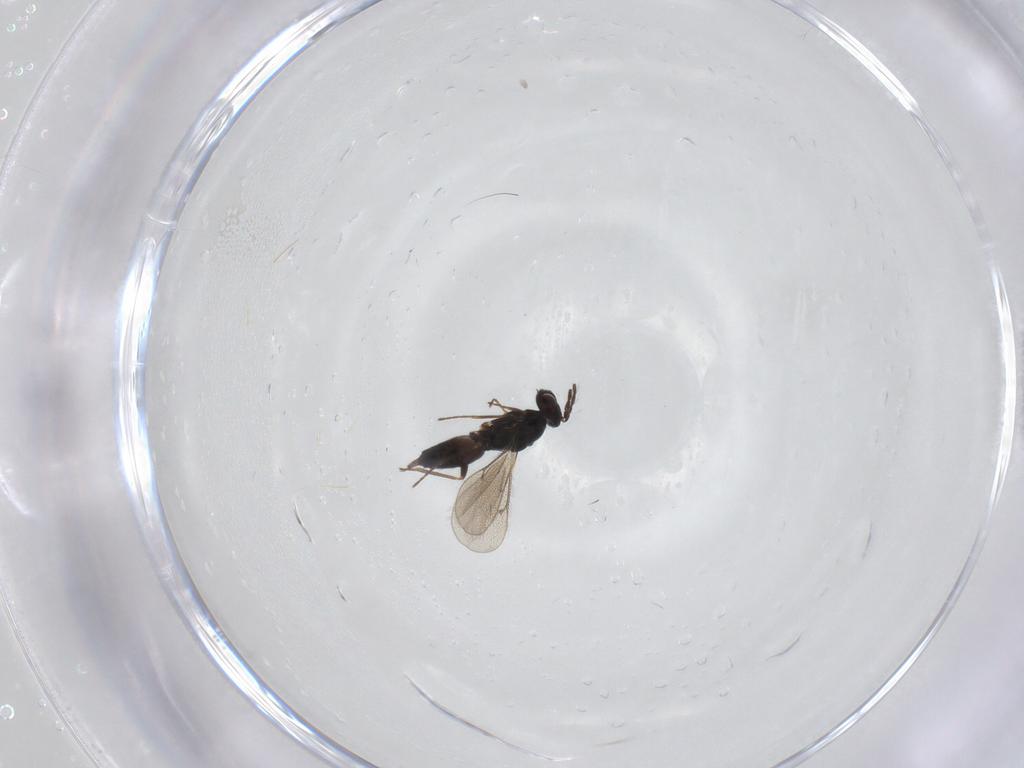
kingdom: Animalia
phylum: Arthropoda
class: Insecta
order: Hymenoptera
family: Eulophidae
